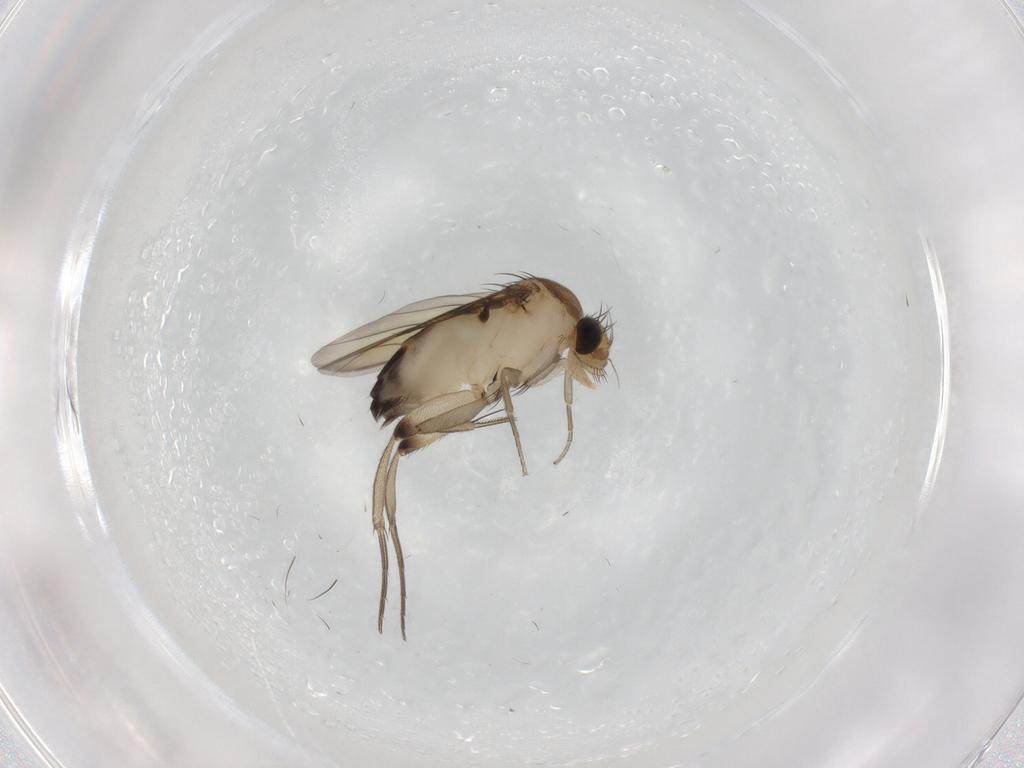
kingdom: Animalia
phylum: Arthropoda
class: Insecta
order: Diptera
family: Phoridae
